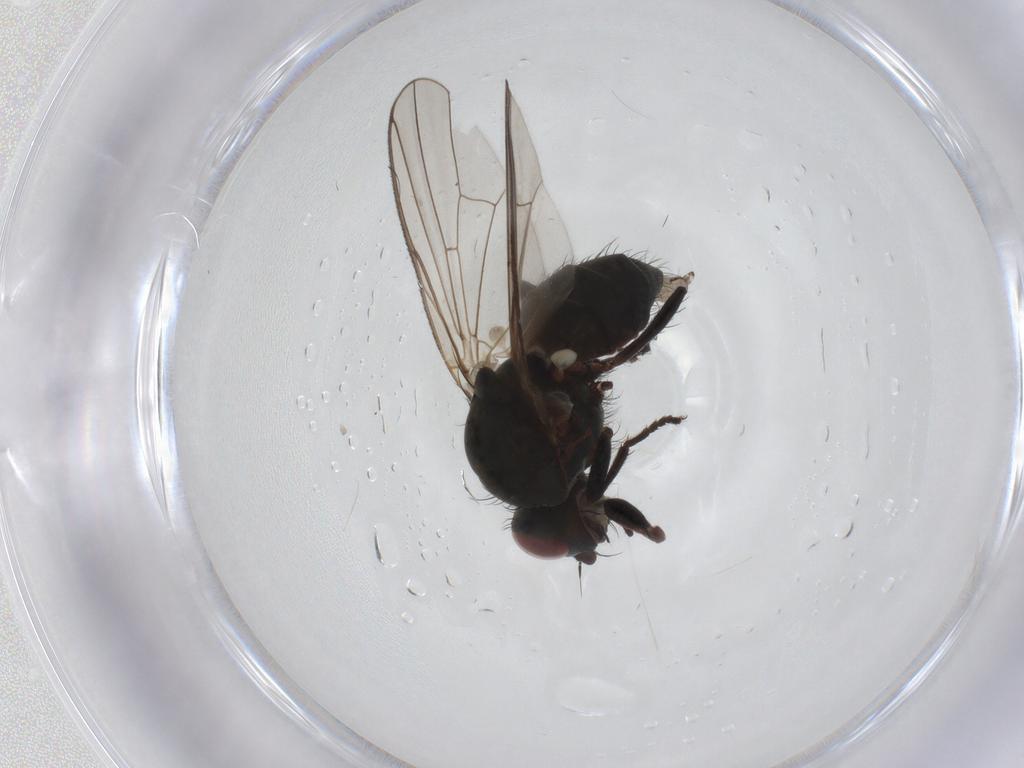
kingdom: Animalia
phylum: Arthropoda
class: Insecta
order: Diptera
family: Anthomyiidae
